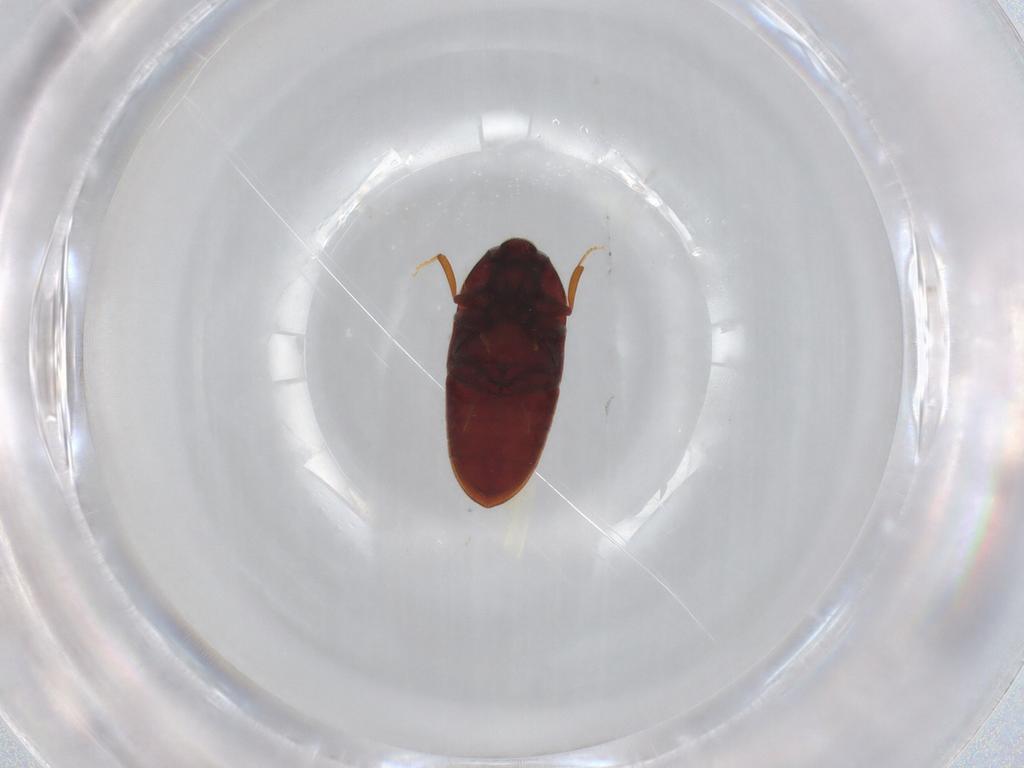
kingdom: Animalia
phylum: Arthropoda
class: Insecta
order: Coleoptera
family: Throscidae
